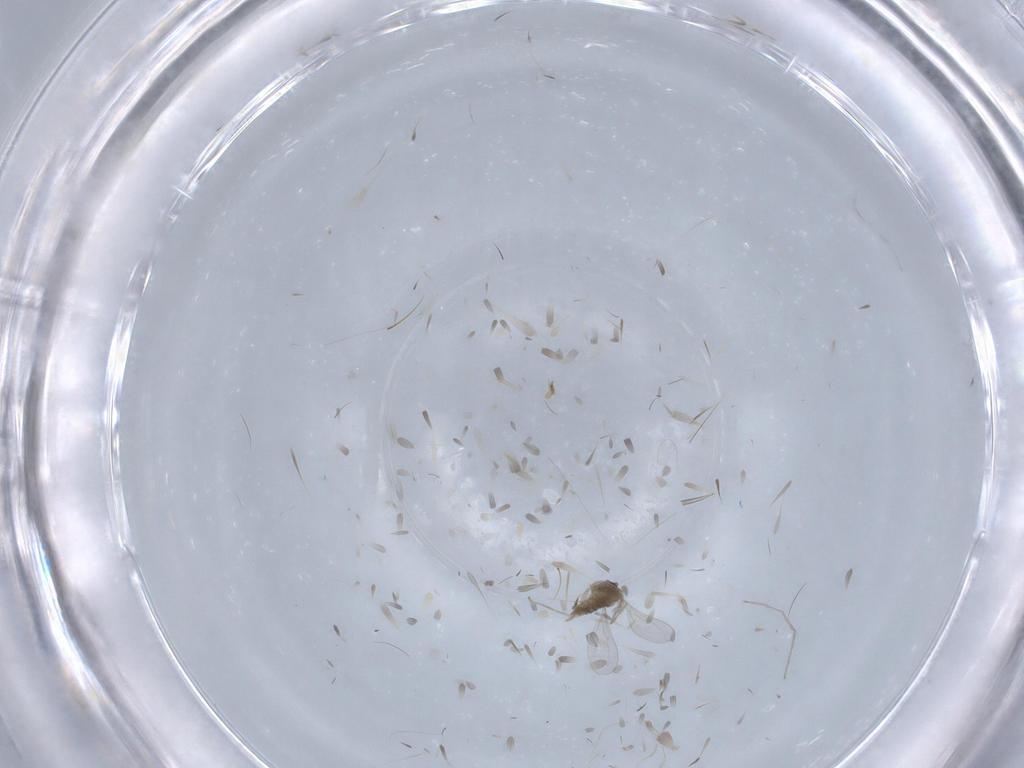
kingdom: Animalia
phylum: Arthropoda
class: Insecta
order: Diptera
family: Cecidomyiidae
